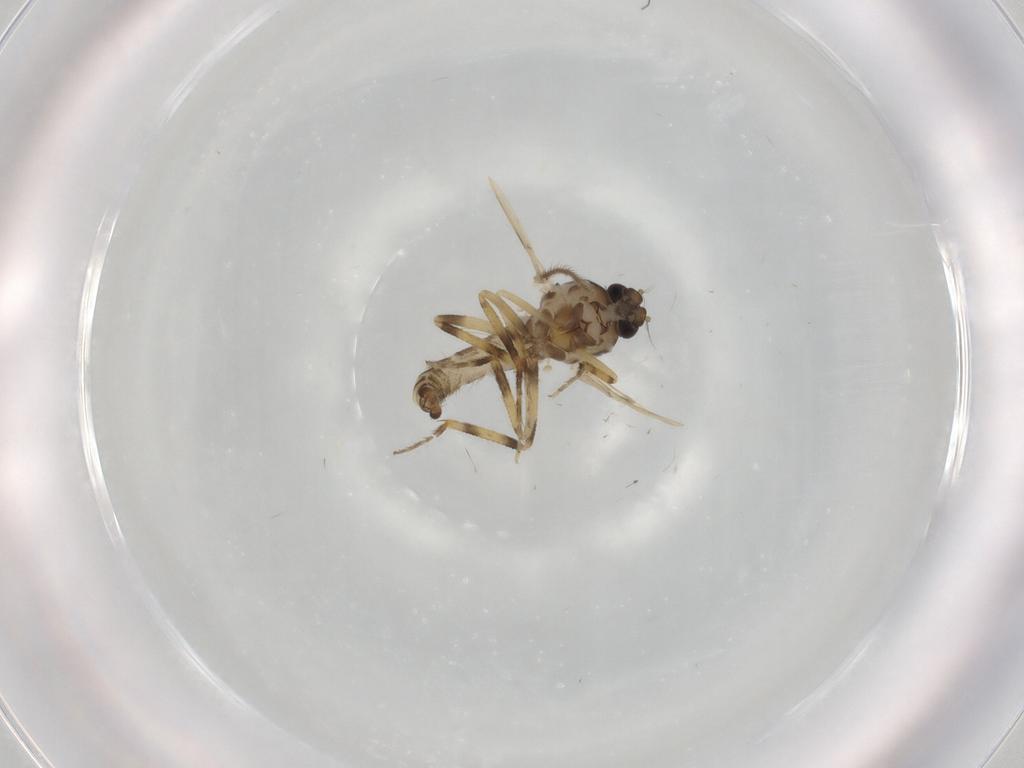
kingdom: Animalia
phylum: Arthropoda
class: Insecta
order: Diptera
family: Ceratopogonidae
